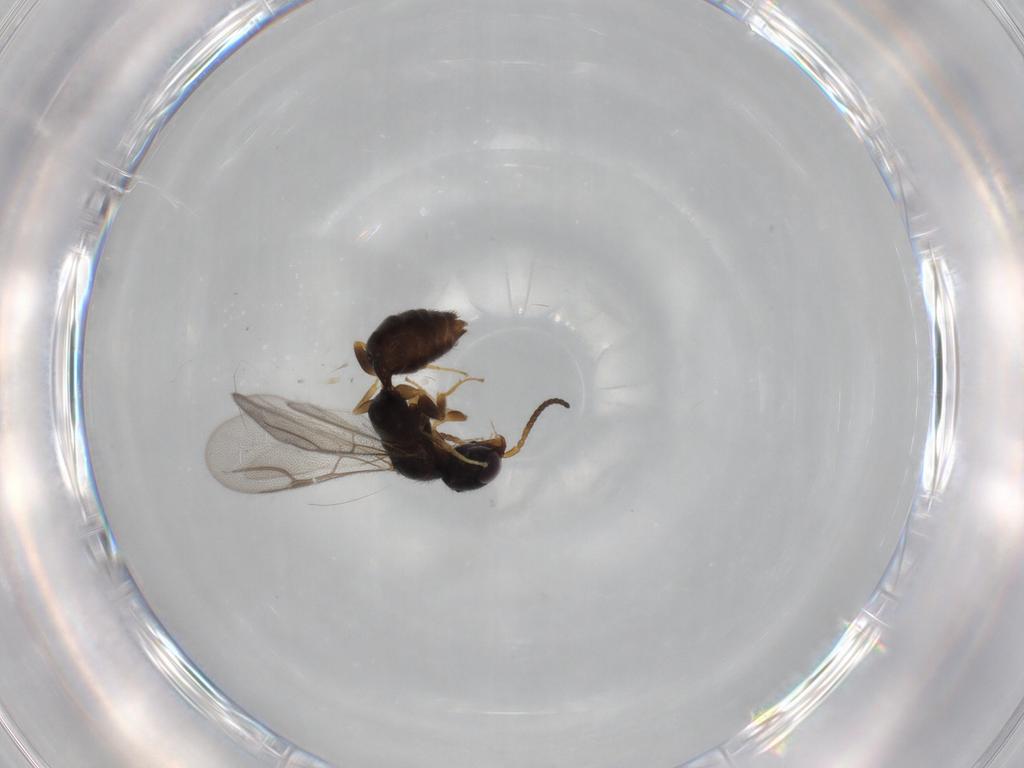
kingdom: Animalia
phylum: Arthropoda
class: Insecta
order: Hymenoptera
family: Bethylidae
